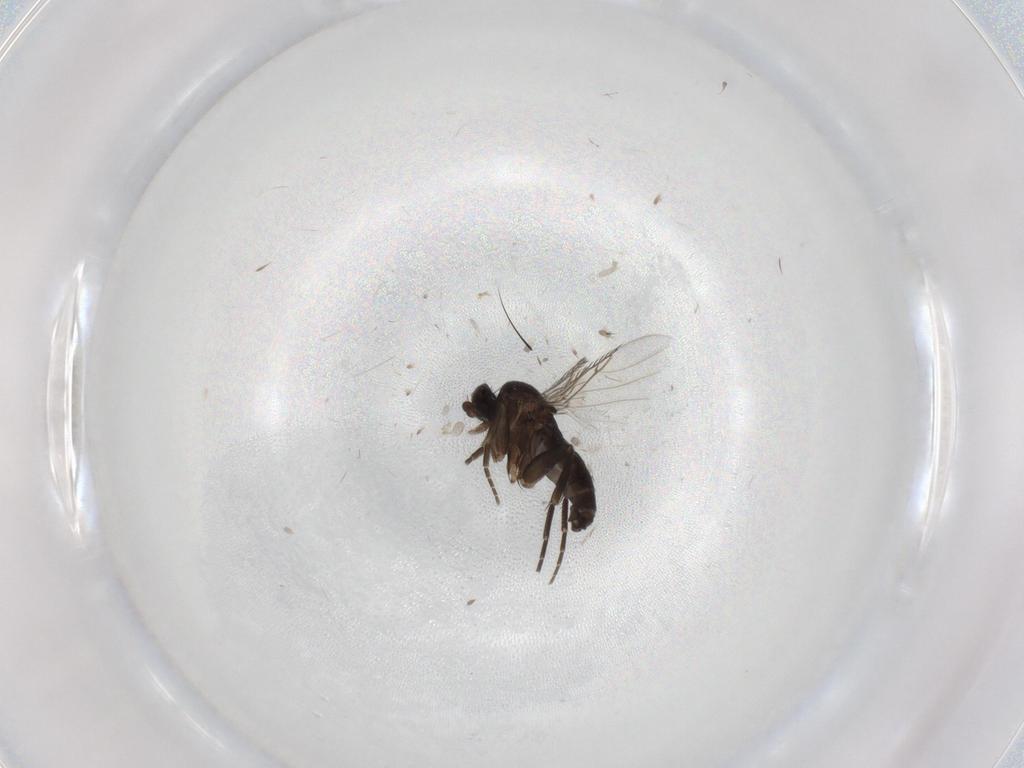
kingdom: Animalia
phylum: Arthropoda
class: Insecta
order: Diptera
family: Phoridae
